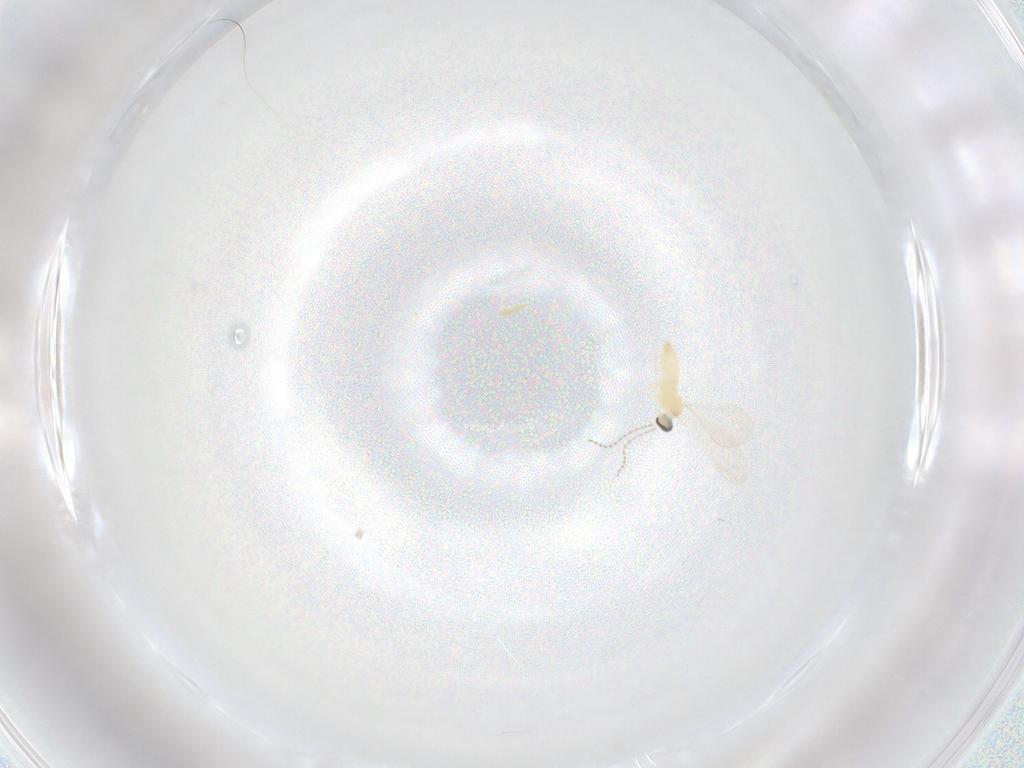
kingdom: Animalia
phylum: Arthropoda
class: Insecta
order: Diptera
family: Cecidomyiidae
